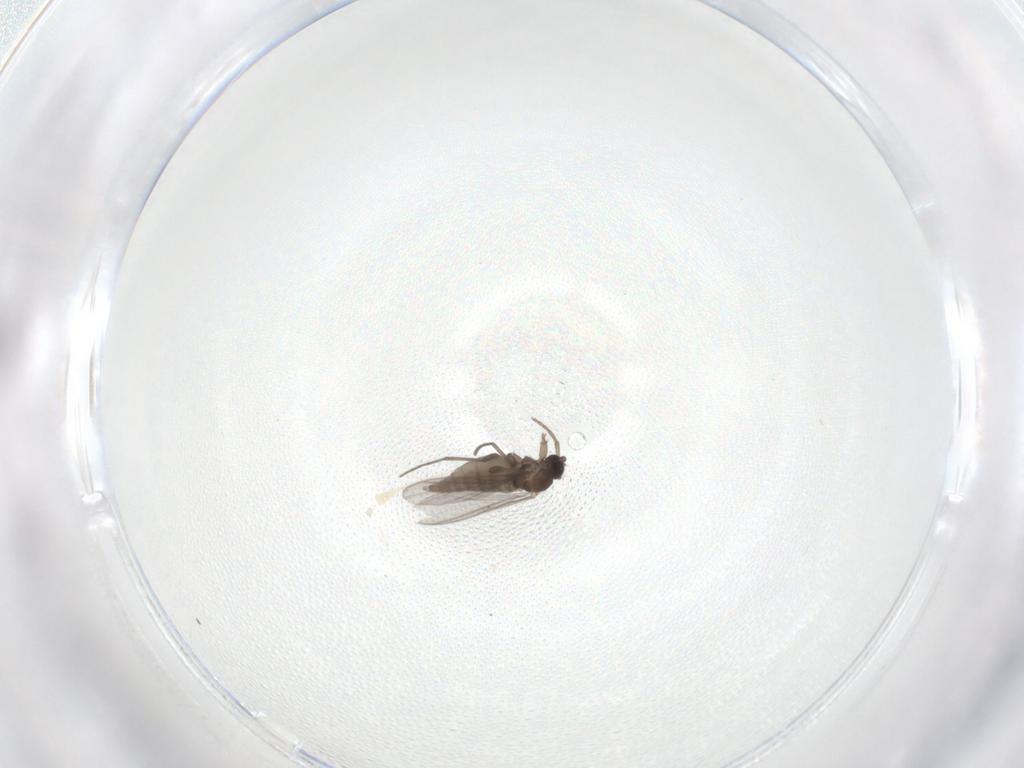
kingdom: Animalia
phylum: Arthropoda
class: Insecta
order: Diptera
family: Sciaridae
